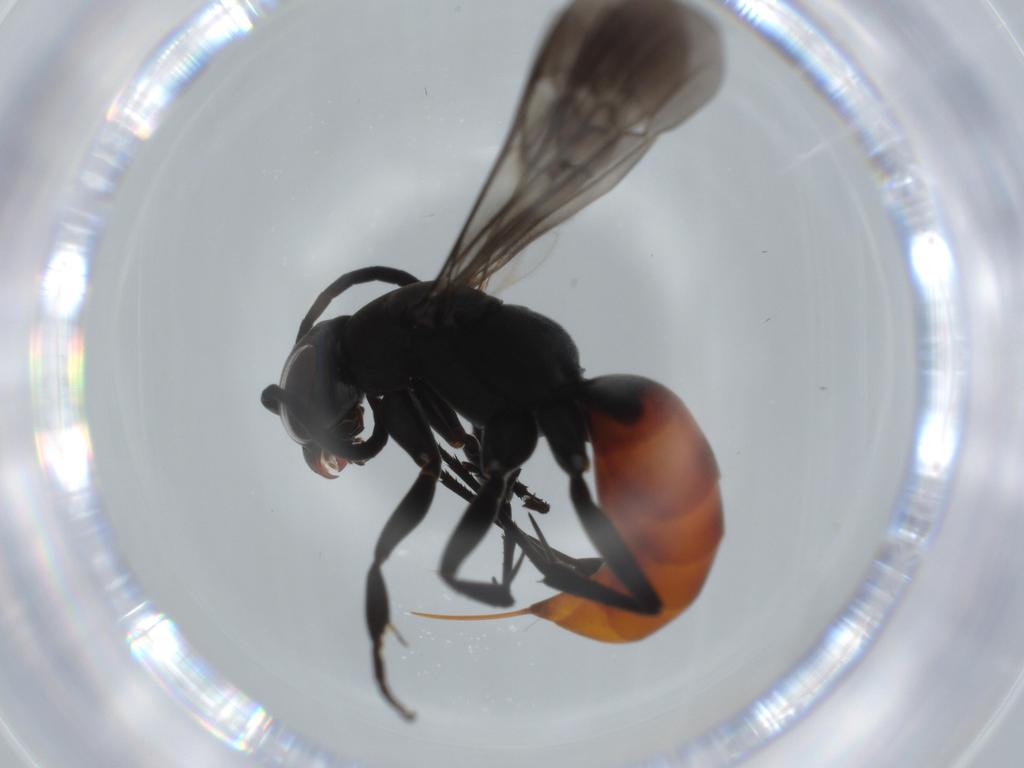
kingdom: Animalia
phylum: Arthropoda
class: Insecta
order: Hymenoptera
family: Pompilidae
